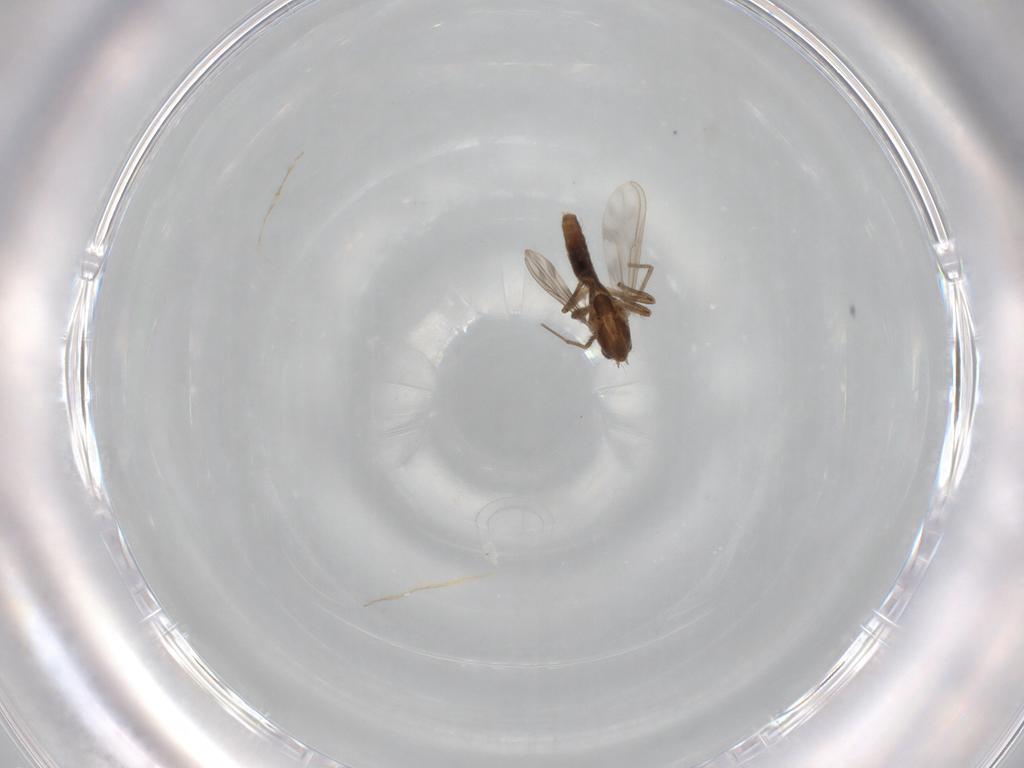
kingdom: Animalia
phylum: Arthropoda
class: Insecta
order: Diptera
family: Chironomidae
